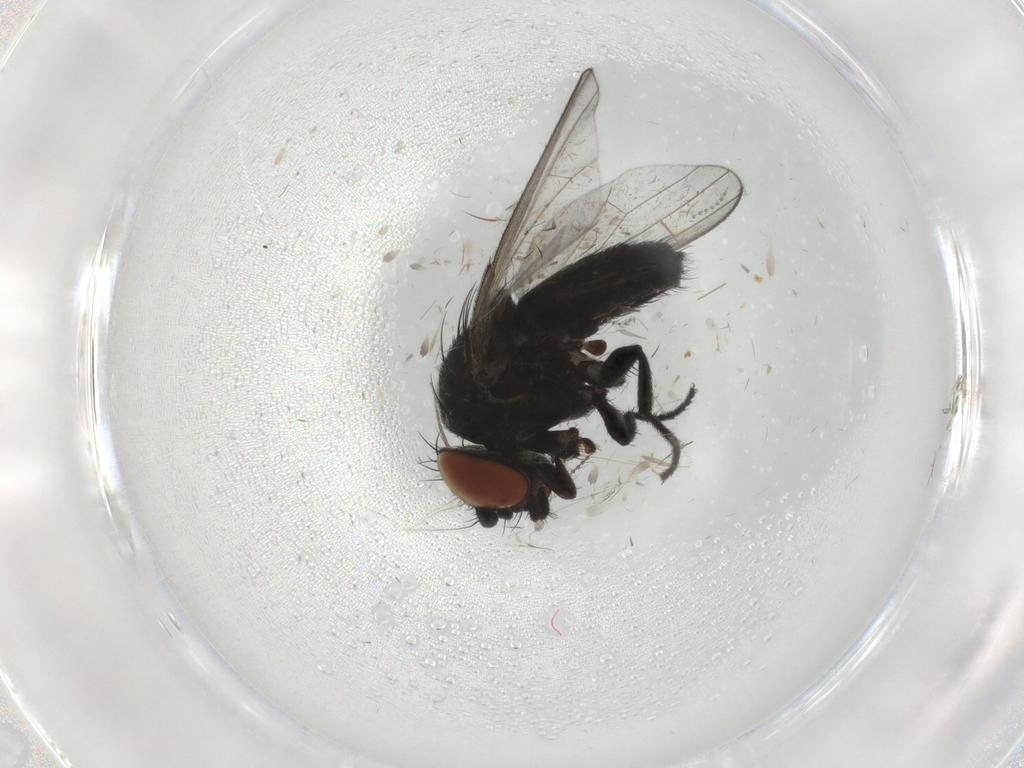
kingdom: Animalia
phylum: Arthropoda
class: Insecta
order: Diptera
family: Milichiidae
